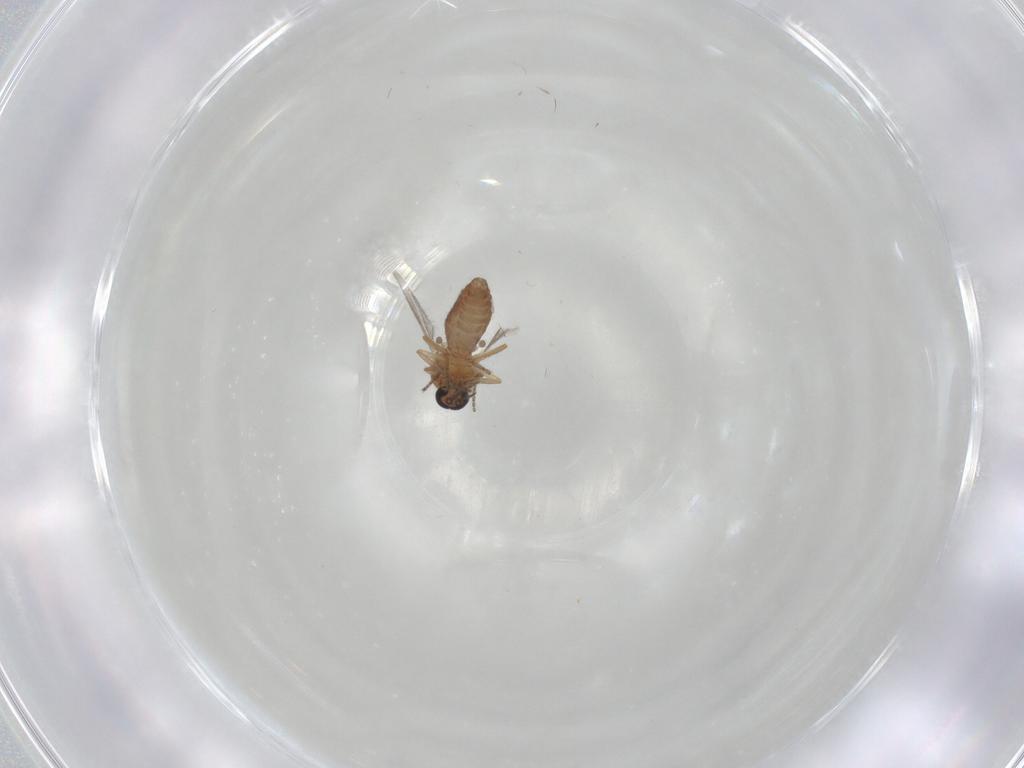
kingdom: Animalia
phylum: Arthropoda
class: Insecta
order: Diptera
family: Ceratopogonidae
